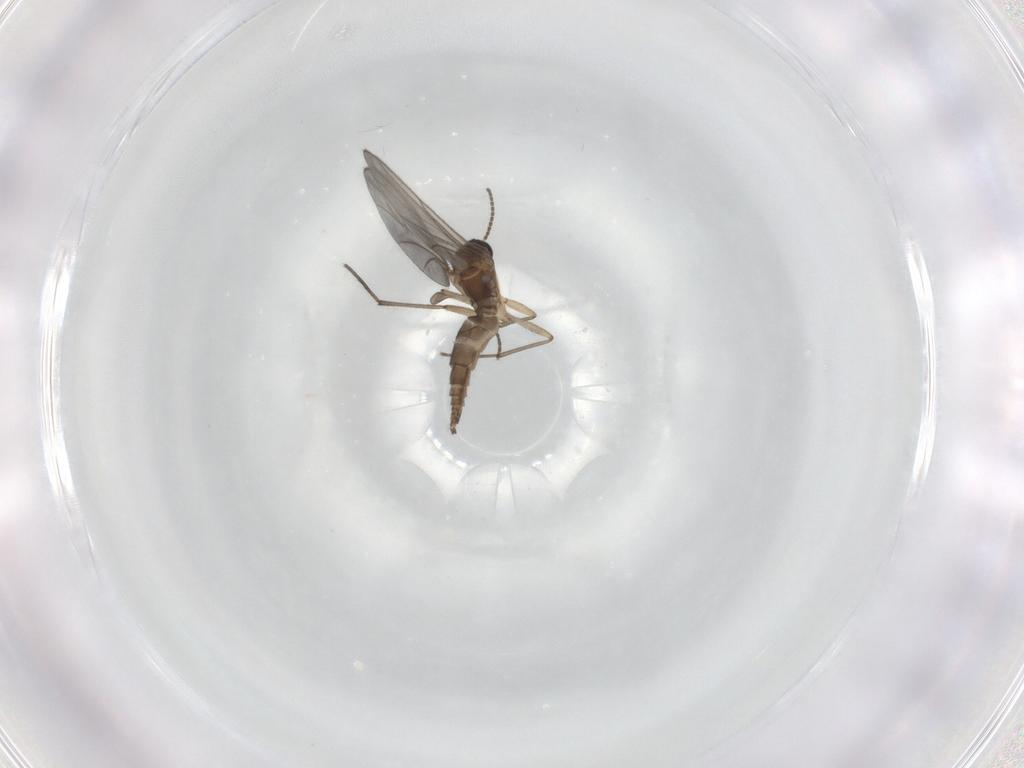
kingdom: Animalia
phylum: Arthropoda
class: Insecta
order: Diptera
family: Sciaridae
